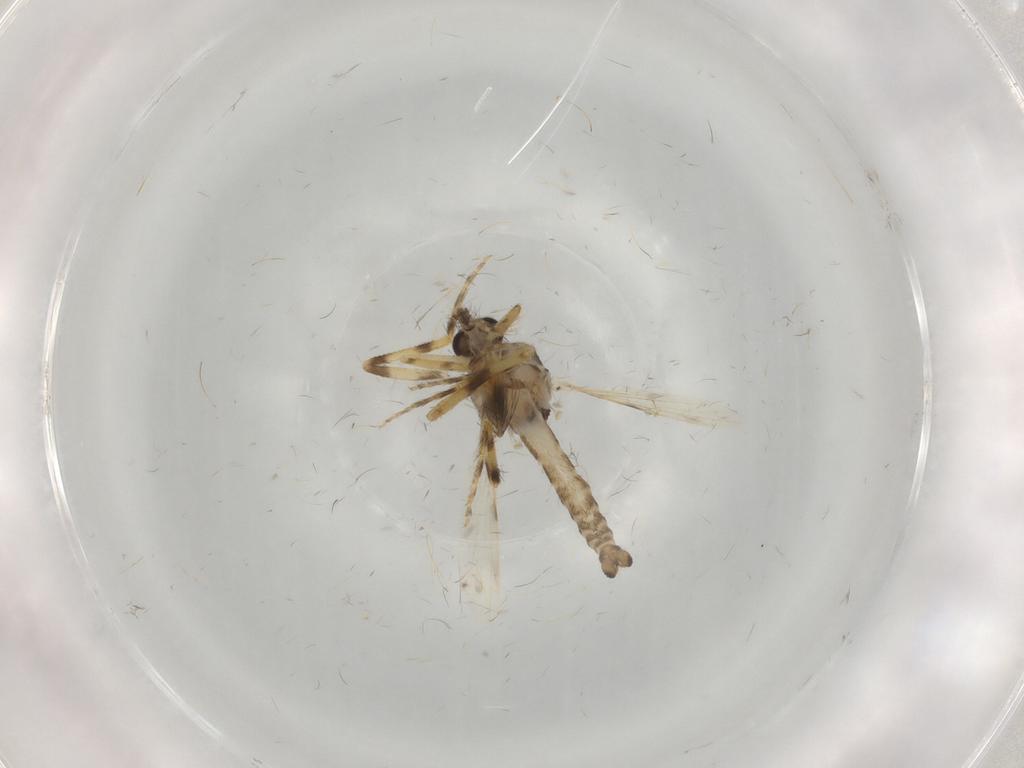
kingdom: Animalia
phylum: Arthropoda
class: Insecta
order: Diptera
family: Ceratopogonidae
